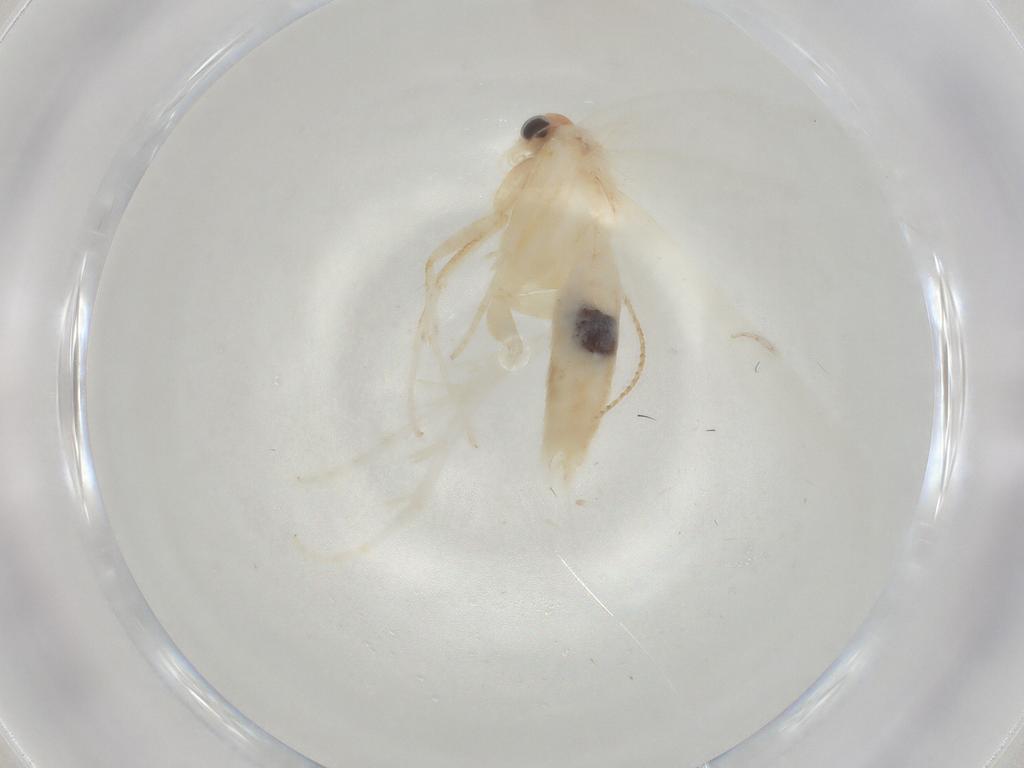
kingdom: Animalia
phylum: Arthropoda
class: Insecta
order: Lepidoptera
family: Gelechiidae
